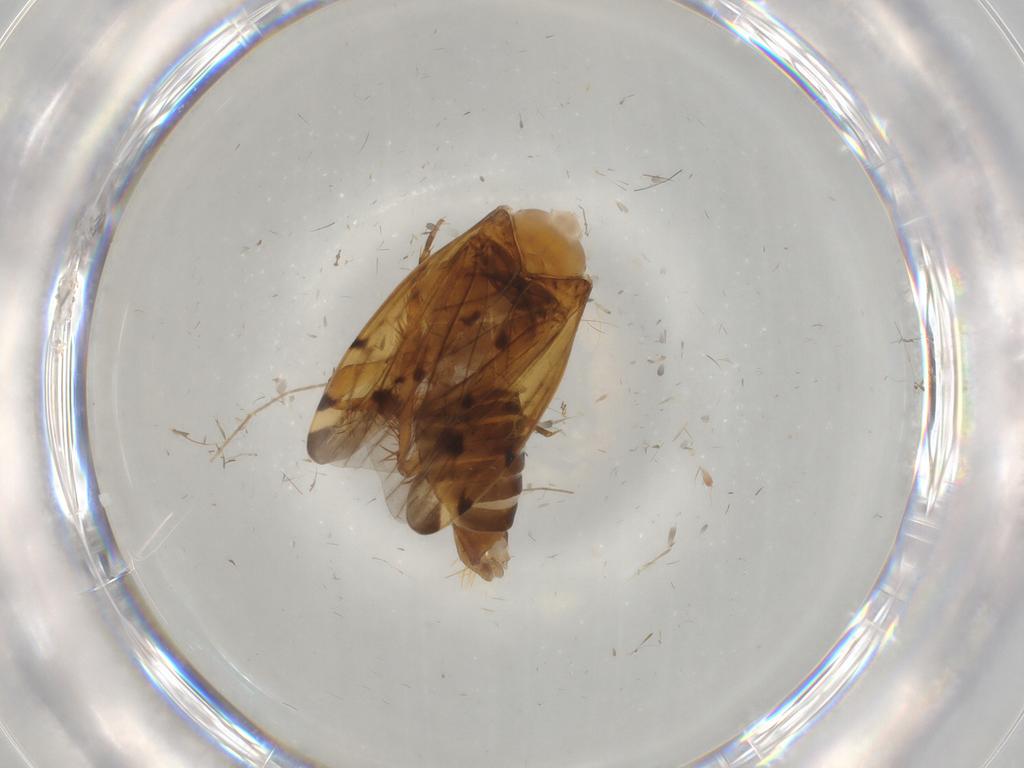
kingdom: Animalia
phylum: Arthropoda
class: Insecta
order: Hemiptera
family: Cicadellidae
